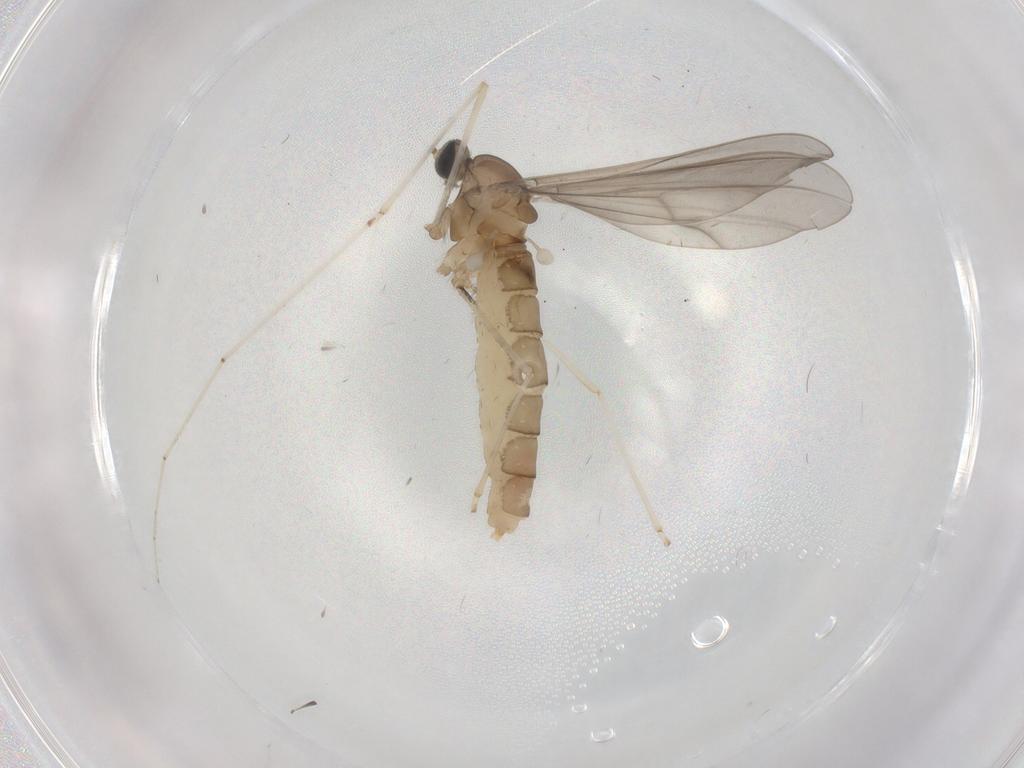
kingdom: Animalia
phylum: Arthropoda
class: Insecta
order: Diptera
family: Cecidomyiidae
